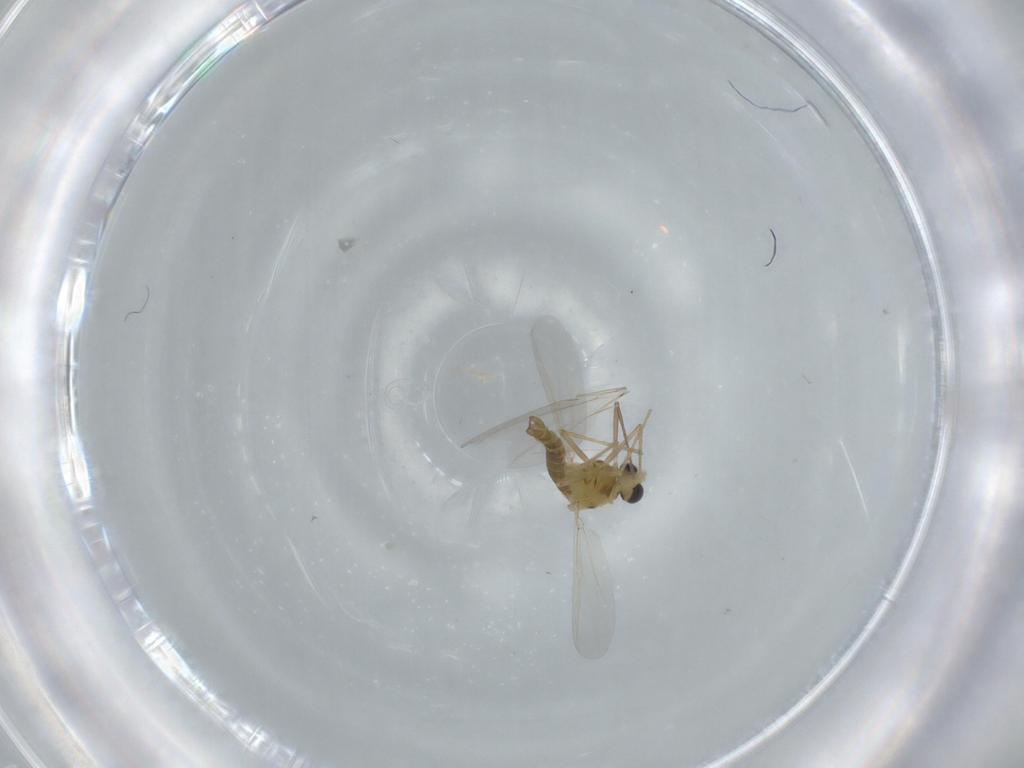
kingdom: Animalia
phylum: Arthropoda
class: Insecta
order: Diptera
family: Chironomidae
